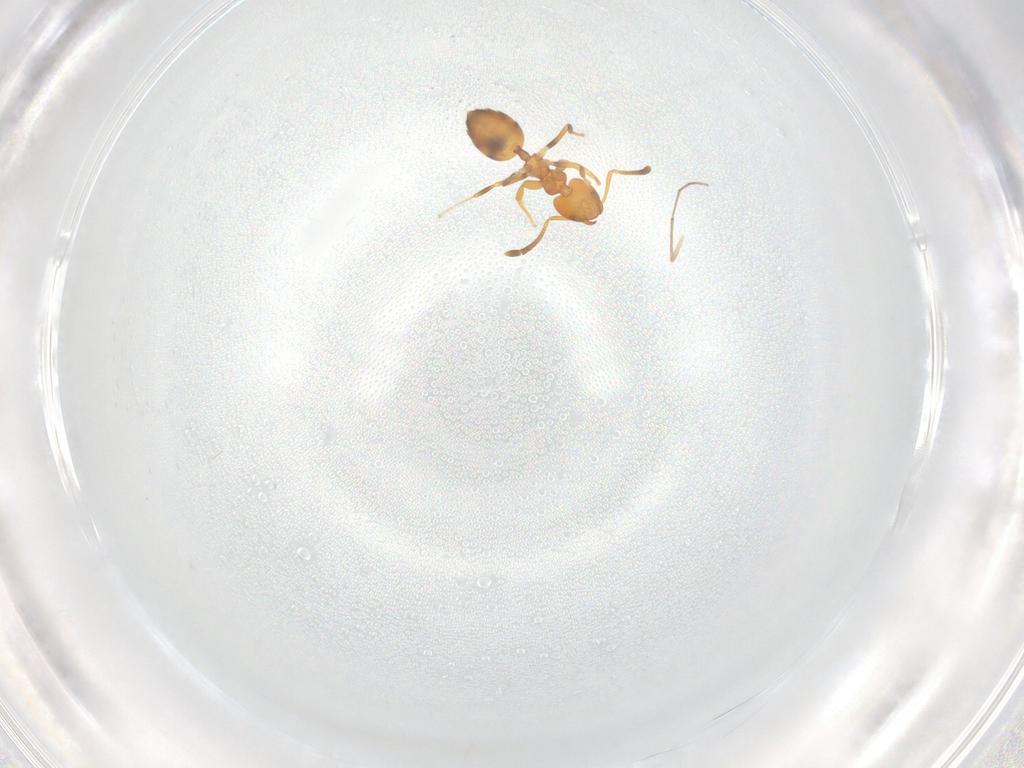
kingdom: Animalia
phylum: Arthropoda
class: Insecta
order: Hymenoptera
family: Formicidae
